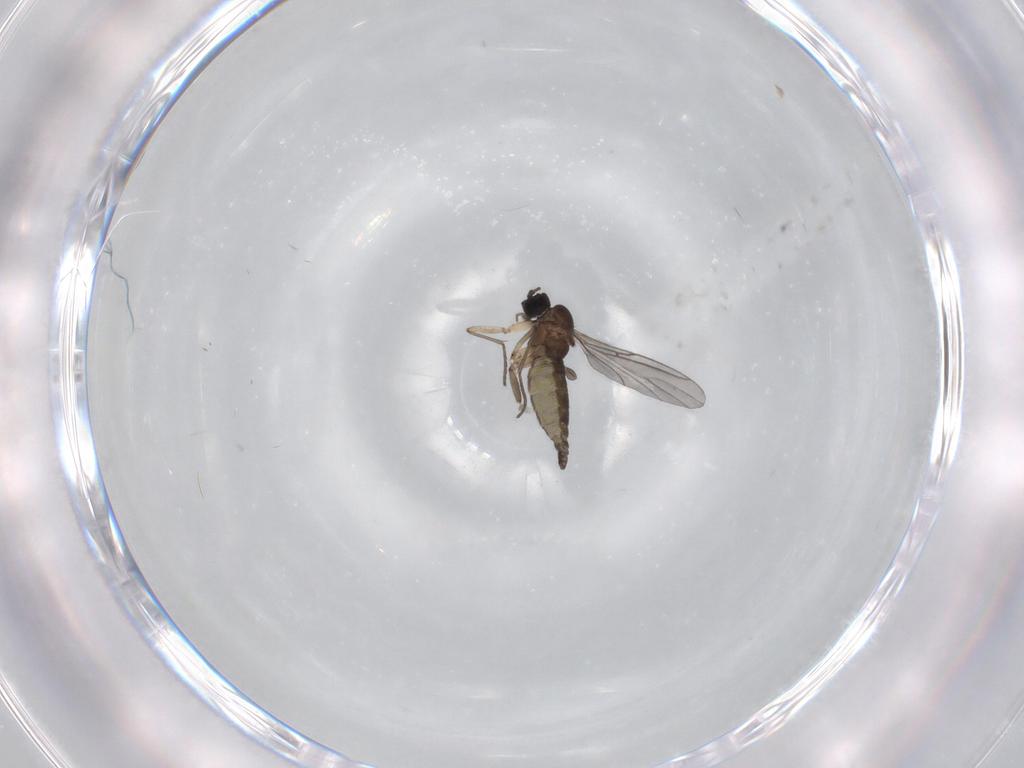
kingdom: Animalia
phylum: Arthropoda
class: Insecta
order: Diptera
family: Sciaridae
